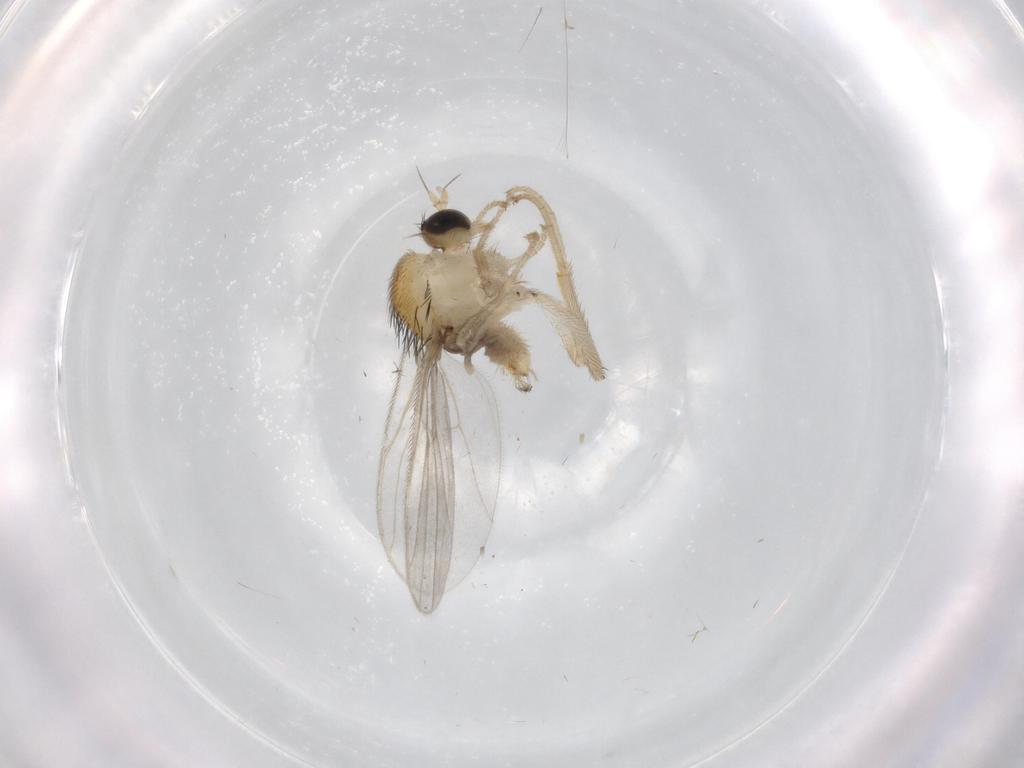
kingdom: Animalia
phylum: Arthropoda
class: Insecta
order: Diptera
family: Hybotidae
